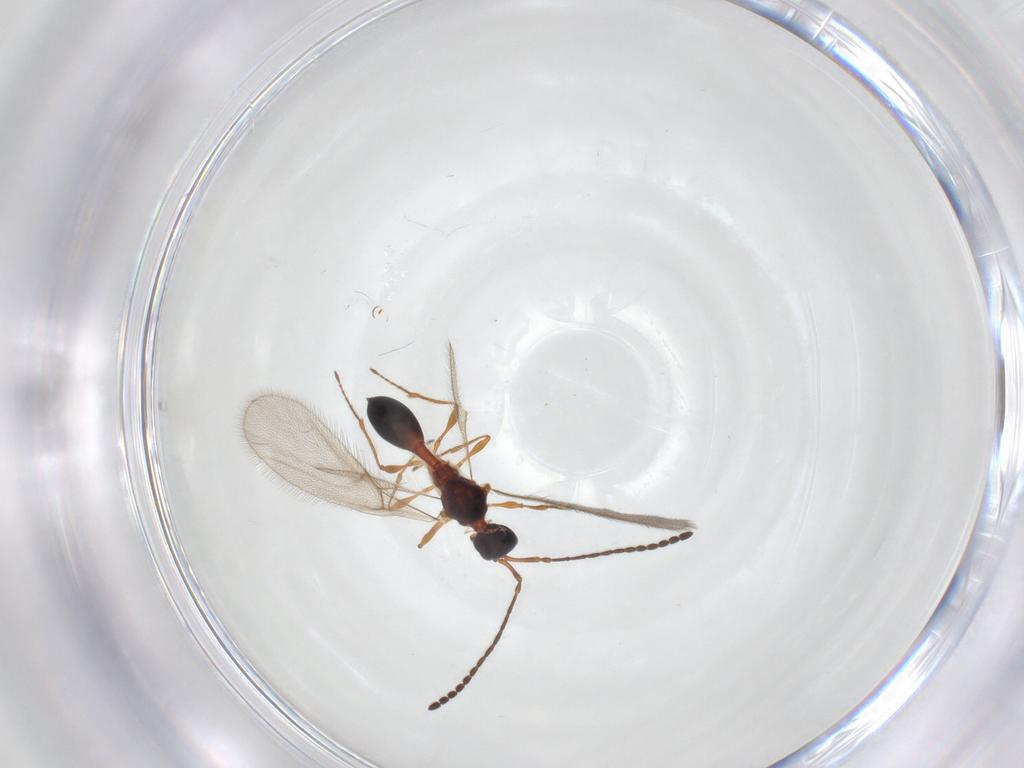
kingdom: Animalia
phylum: Arthropoda
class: Insecta
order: Hymenoptera
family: Diapriidae
